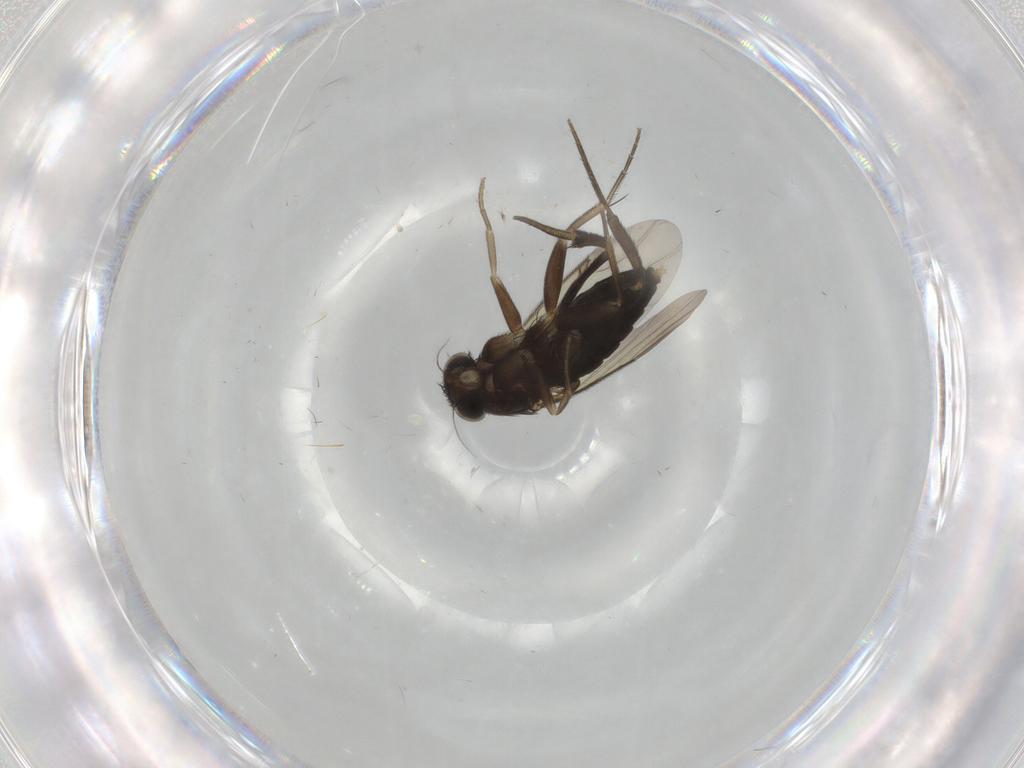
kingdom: Animalia
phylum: Arthropoda
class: Insecta
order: Diptera
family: Phoridae
